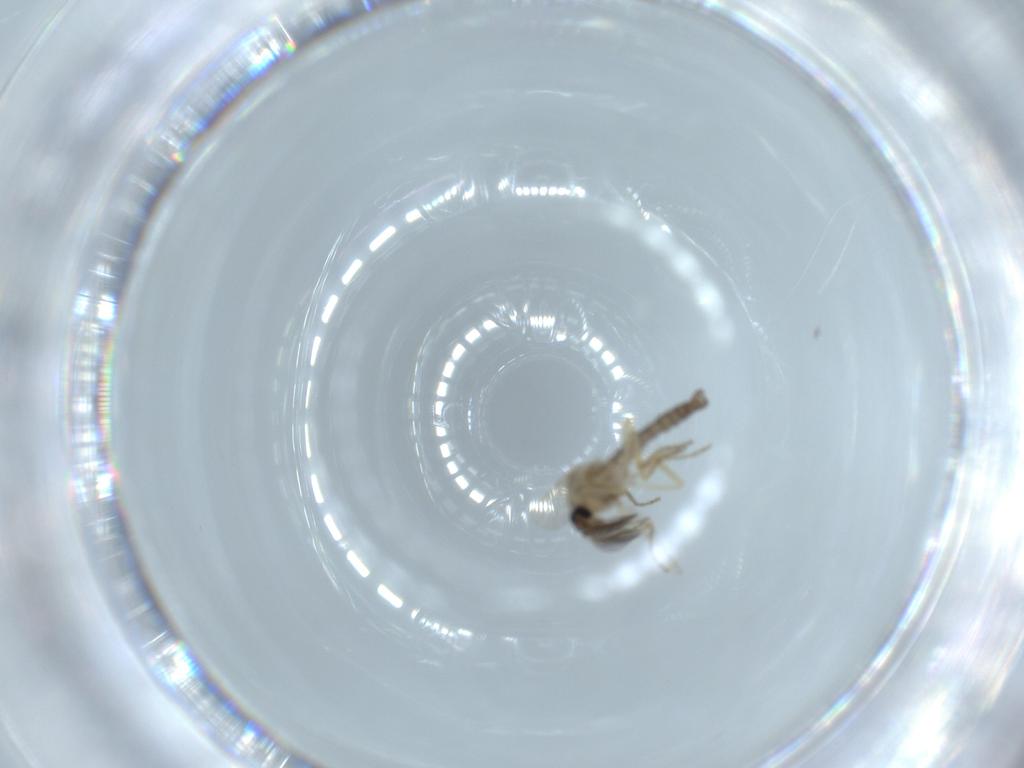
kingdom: Animalia
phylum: Arthropoda
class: Insecta
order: Diptera
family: Ceratopogonidae
